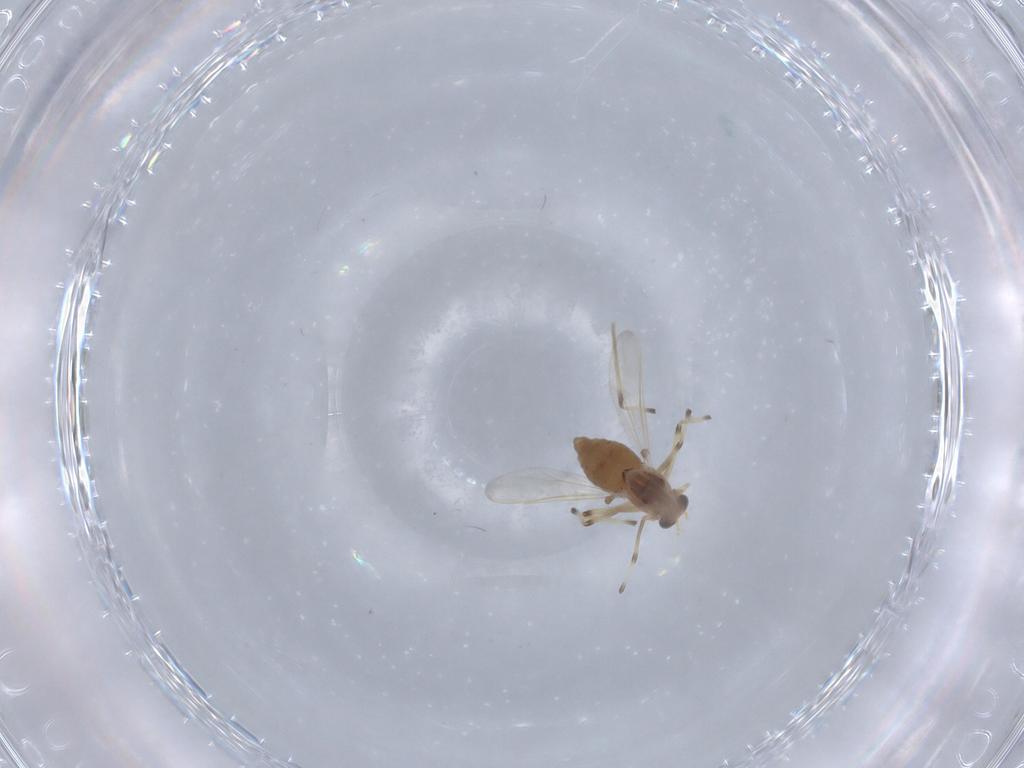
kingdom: Animalia
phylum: Arthropoda
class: Insecta
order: Diptera
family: Chironomidae
